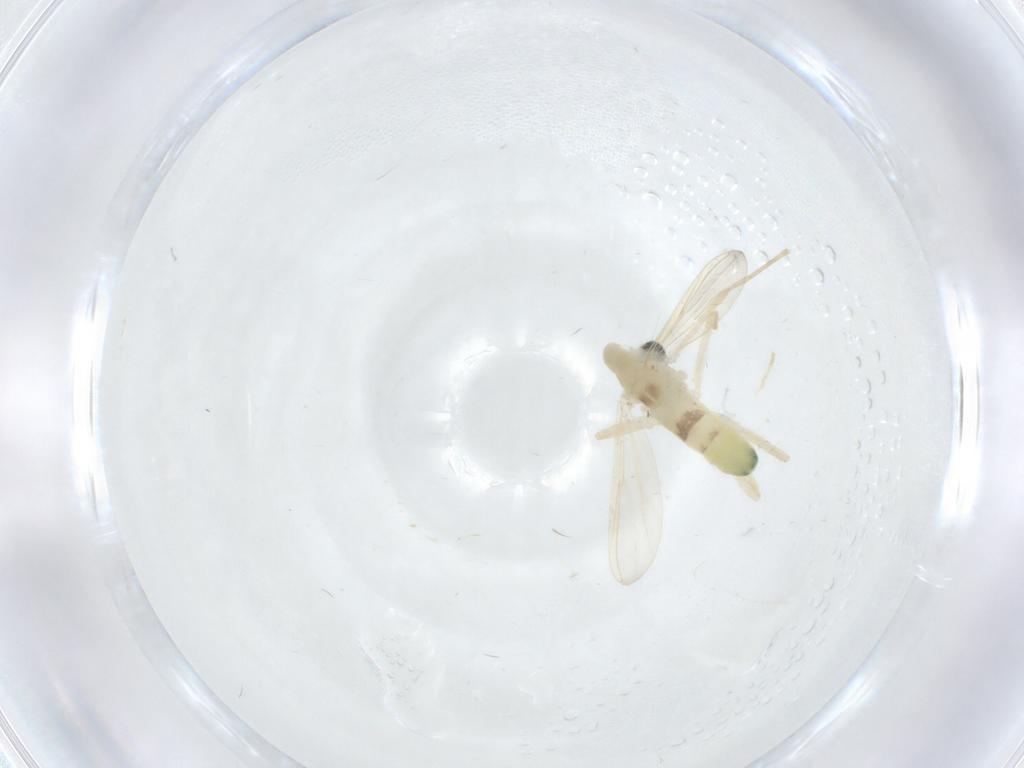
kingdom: Animalia
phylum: Arthropoda
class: Insecta
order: Diptera
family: Chironomidae
